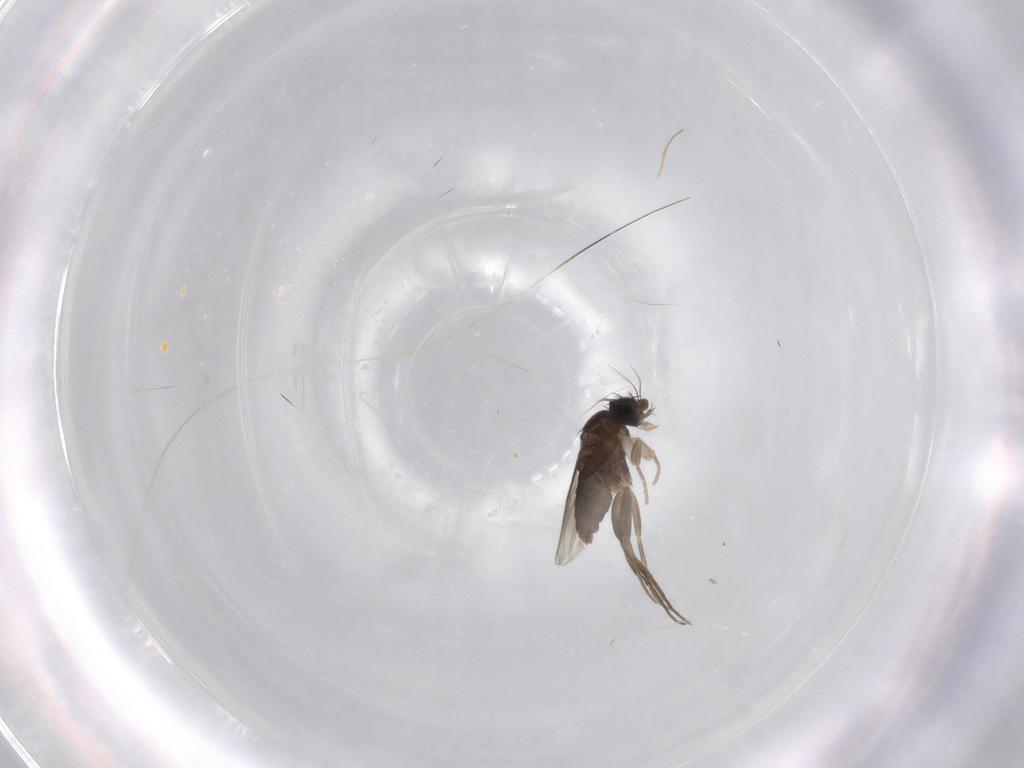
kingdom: Animalia
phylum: Arthropoda
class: Insecta
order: Diptera
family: Phoridae
